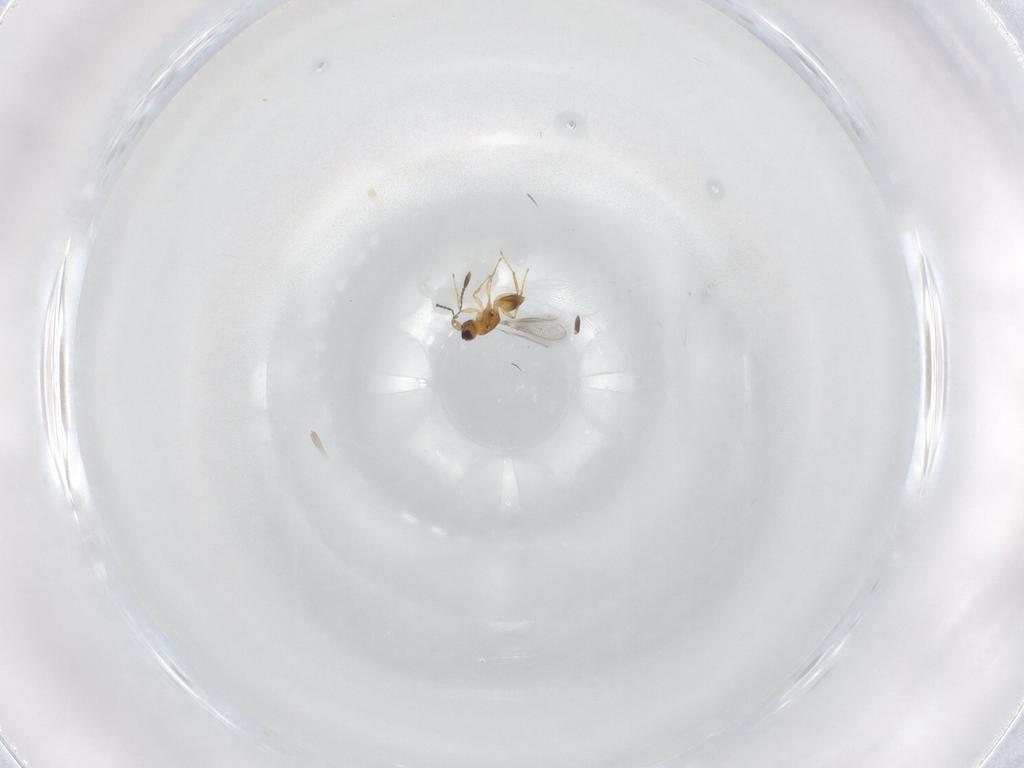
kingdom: Animalia
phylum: Arthropoda
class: Insecta
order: Hymenoptera
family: Mymaridae
